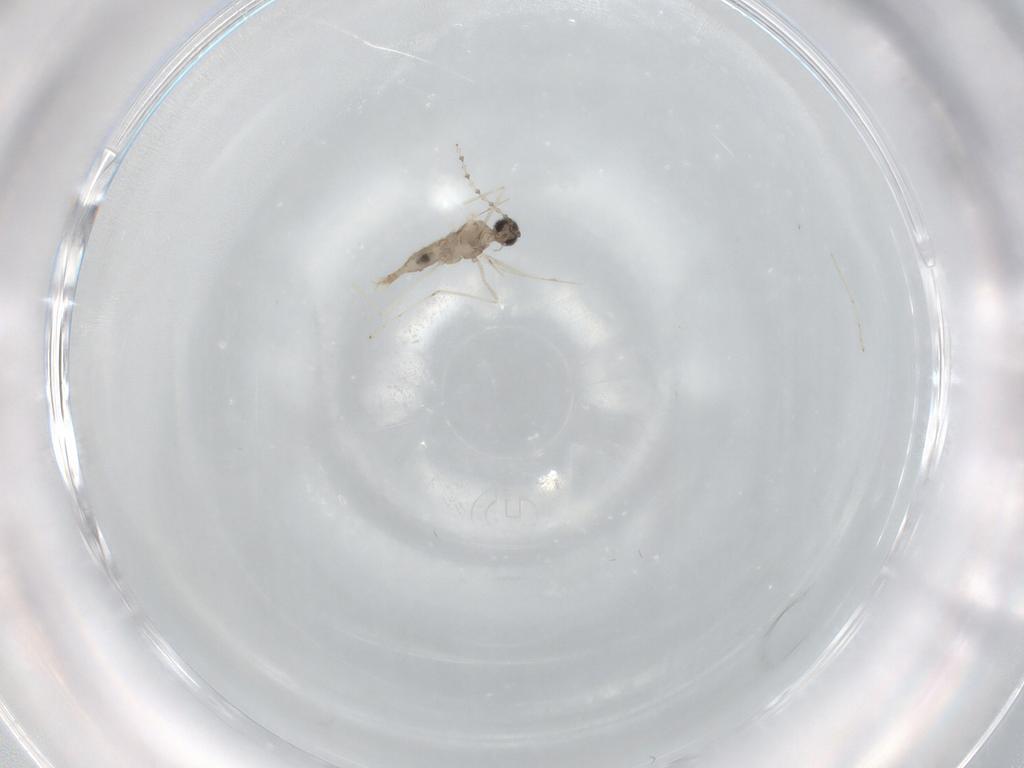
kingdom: Animalia
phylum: Arthropoda
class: Insecta
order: Diptera
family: Cecidomyiidae
